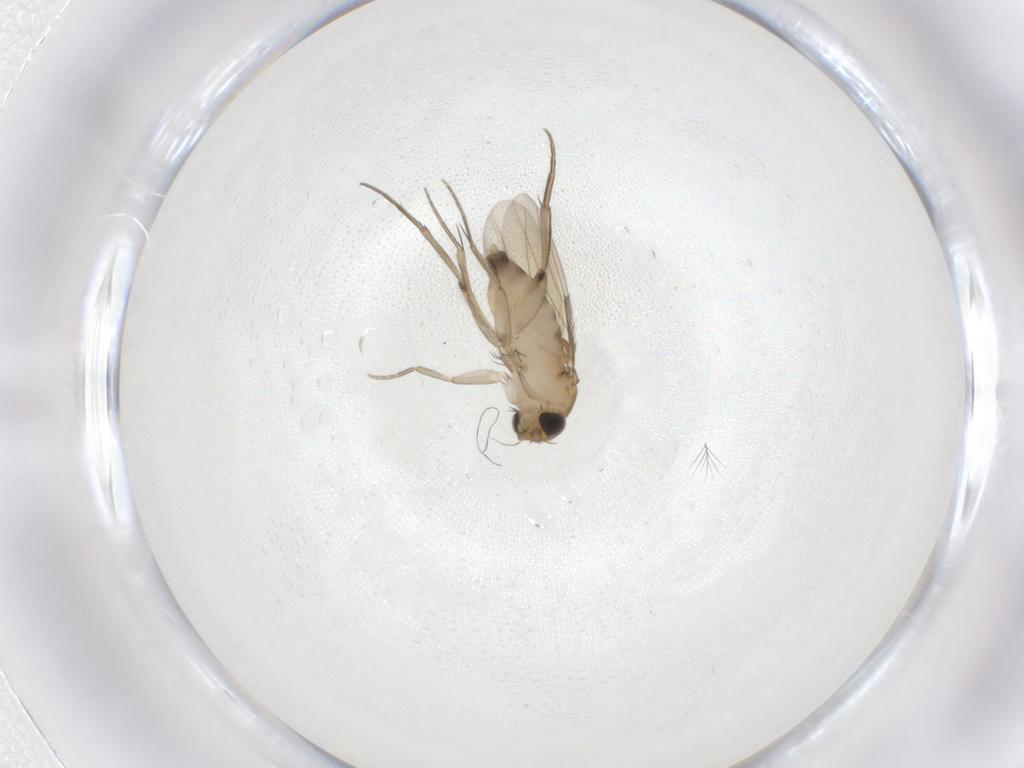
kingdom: Animalia
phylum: Arthropoda
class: Insecta
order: Diptera
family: Phoridae
